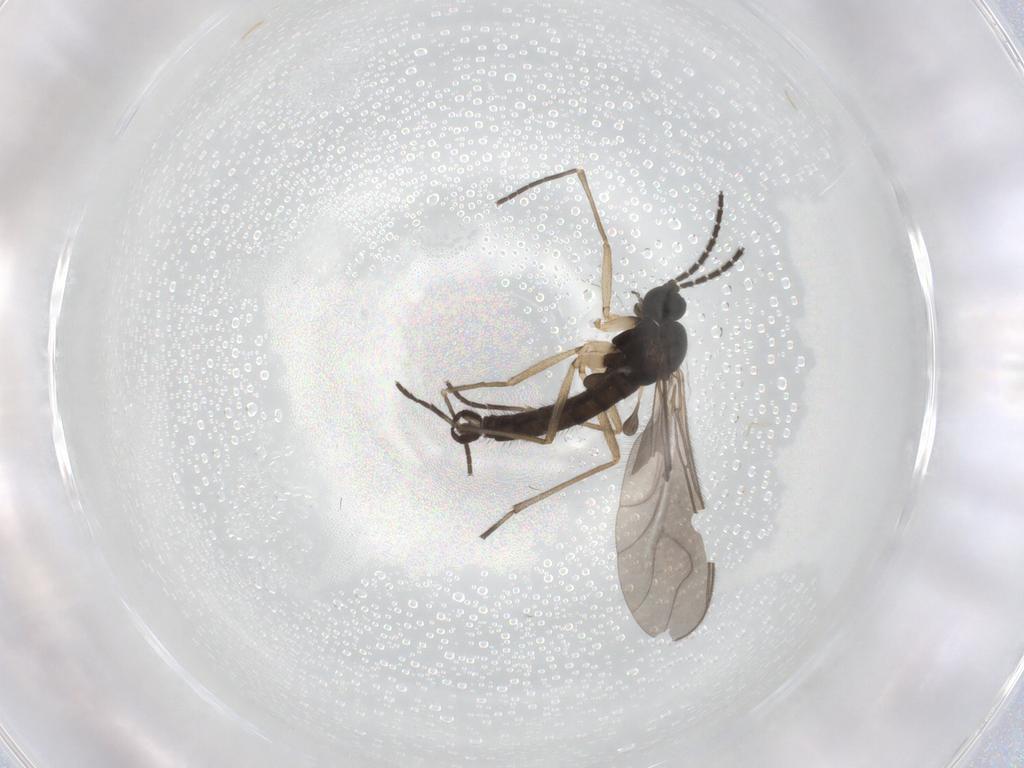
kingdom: Animalia
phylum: Arthropoda
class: Insecta
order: Diptera
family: Sciaridae
